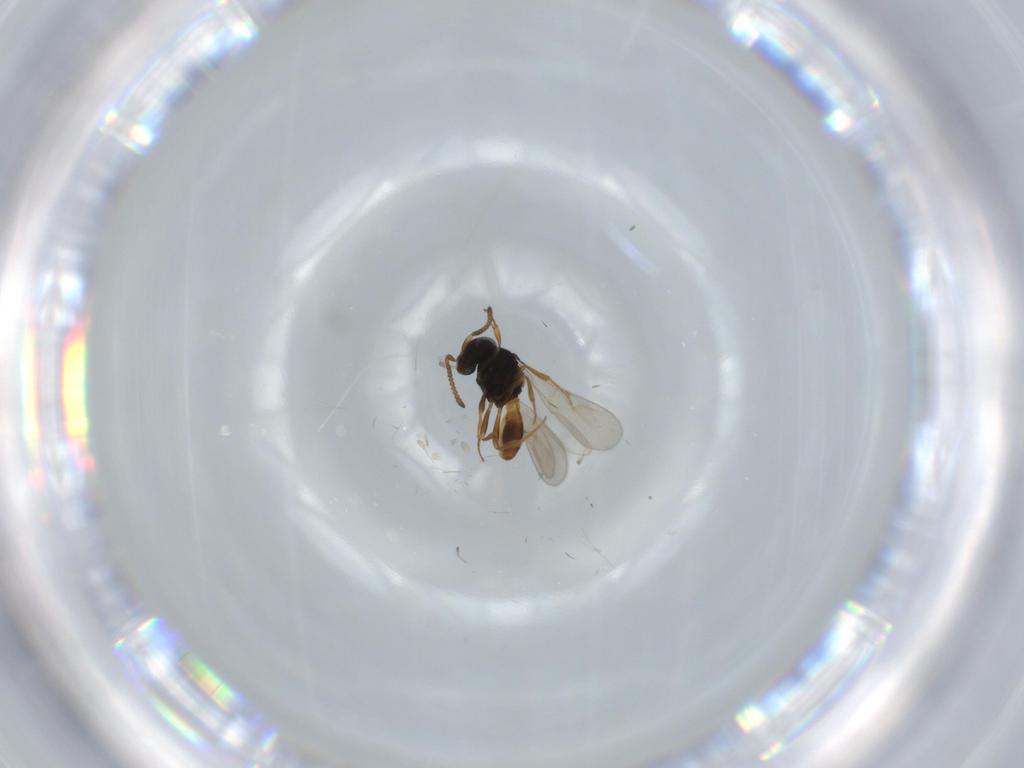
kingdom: Animalia
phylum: Arthropoda
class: Insecta
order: Hymenoptera
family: Scelionidae
